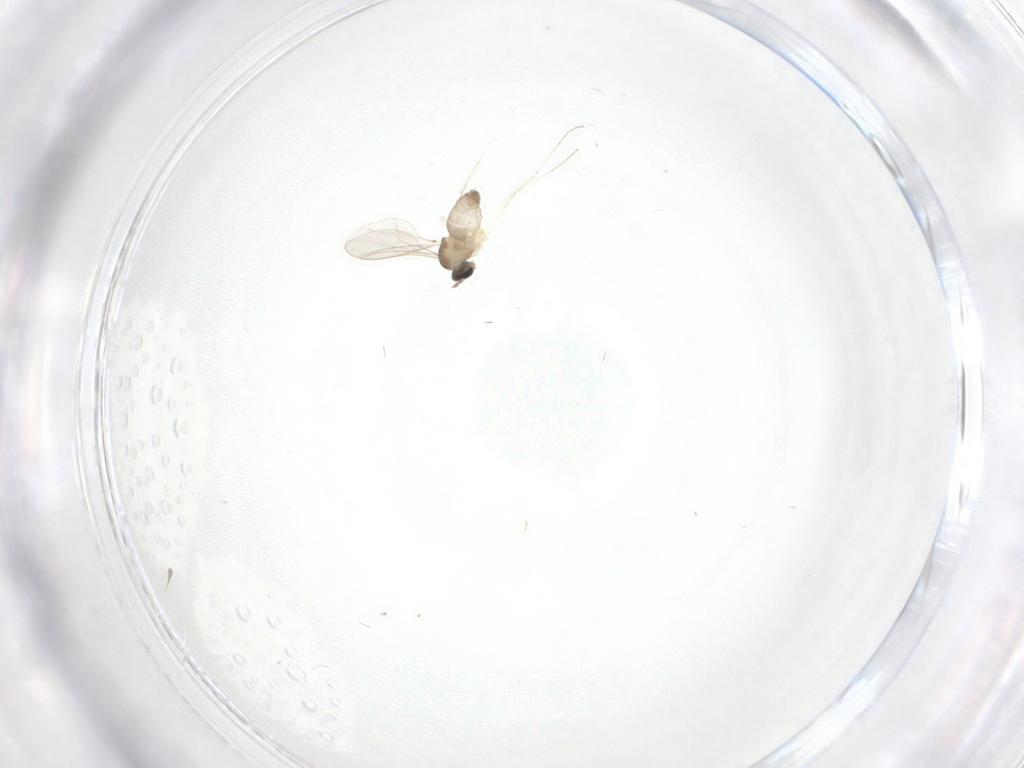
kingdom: Animalia
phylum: Arthropoda
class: Insecta
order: Diptera
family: Cecidomyiidae
